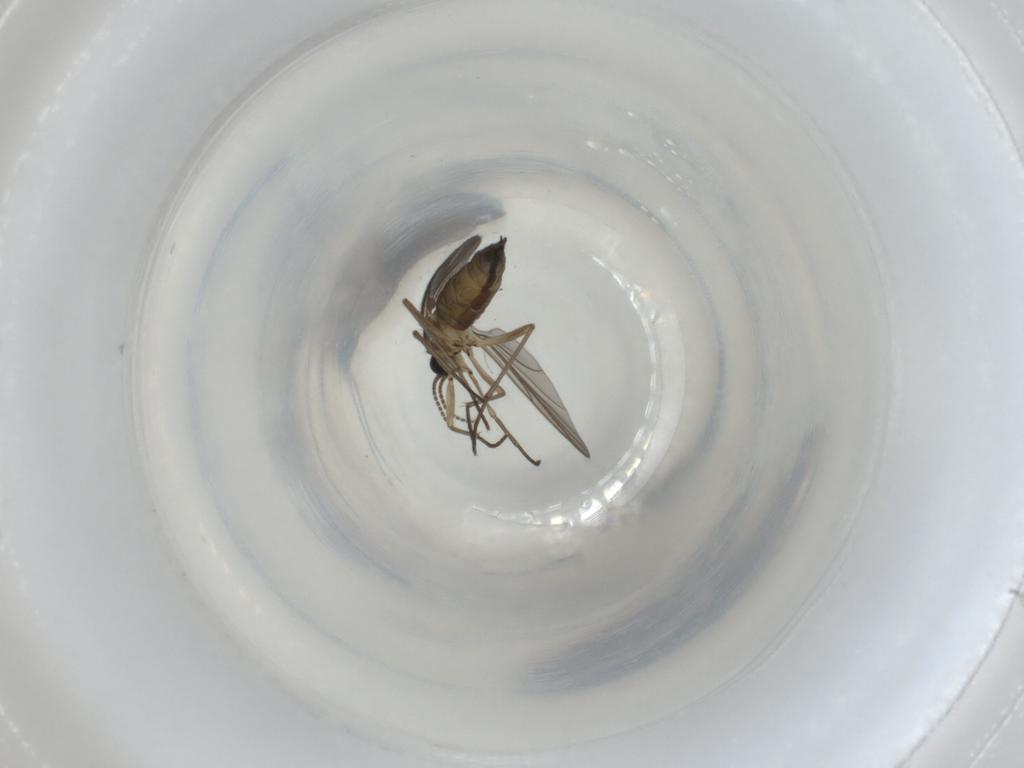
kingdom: Animalia
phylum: Arthropoda
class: Insecta
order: Diptera
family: Sciaridae
